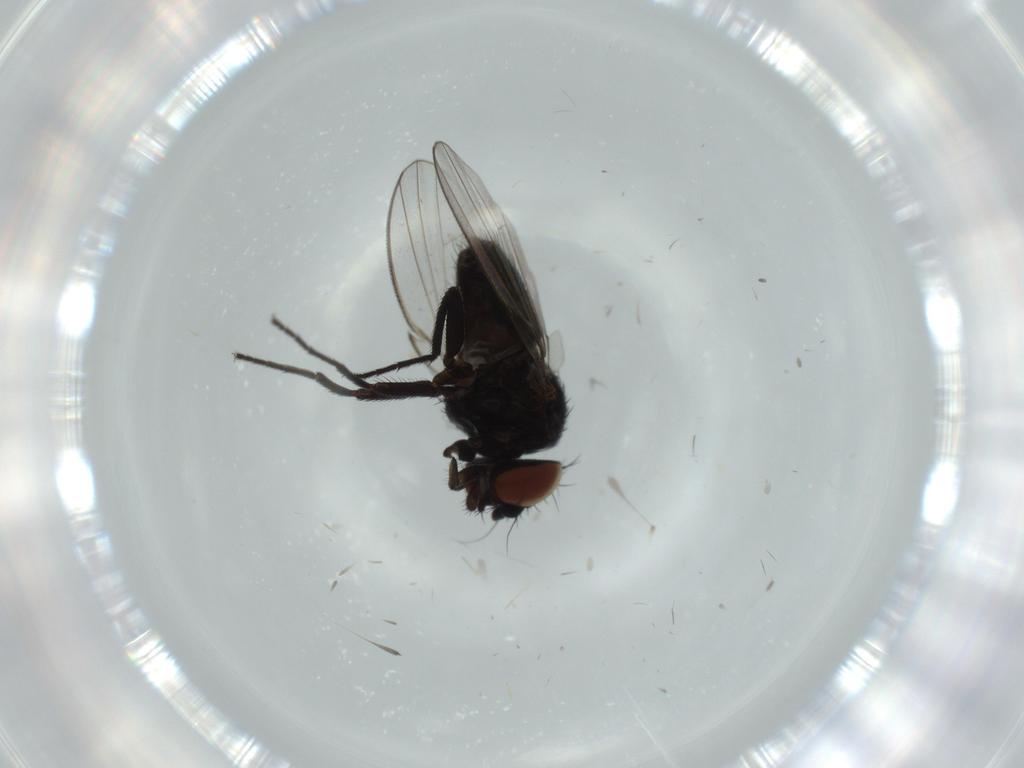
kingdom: Animalia
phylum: Arthropoda
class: Insecta
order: Diptera
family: Milichiidae
